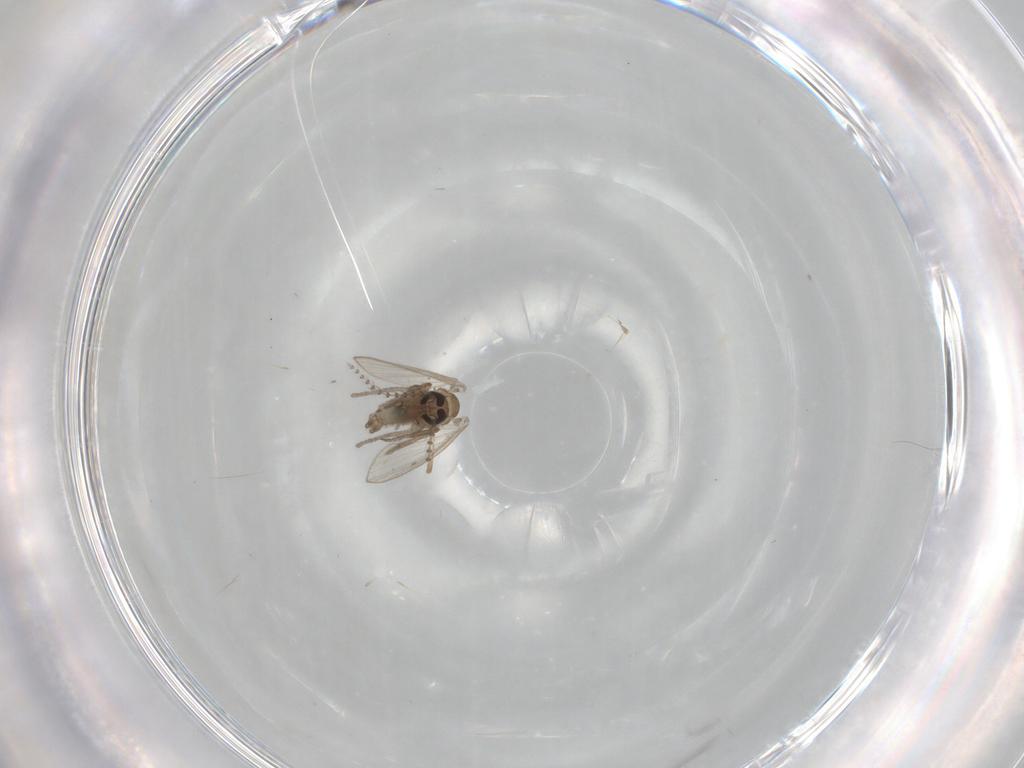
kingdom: Animalia
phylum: Arthropoda
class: Insecta
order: Diptera
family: Psychodidae
